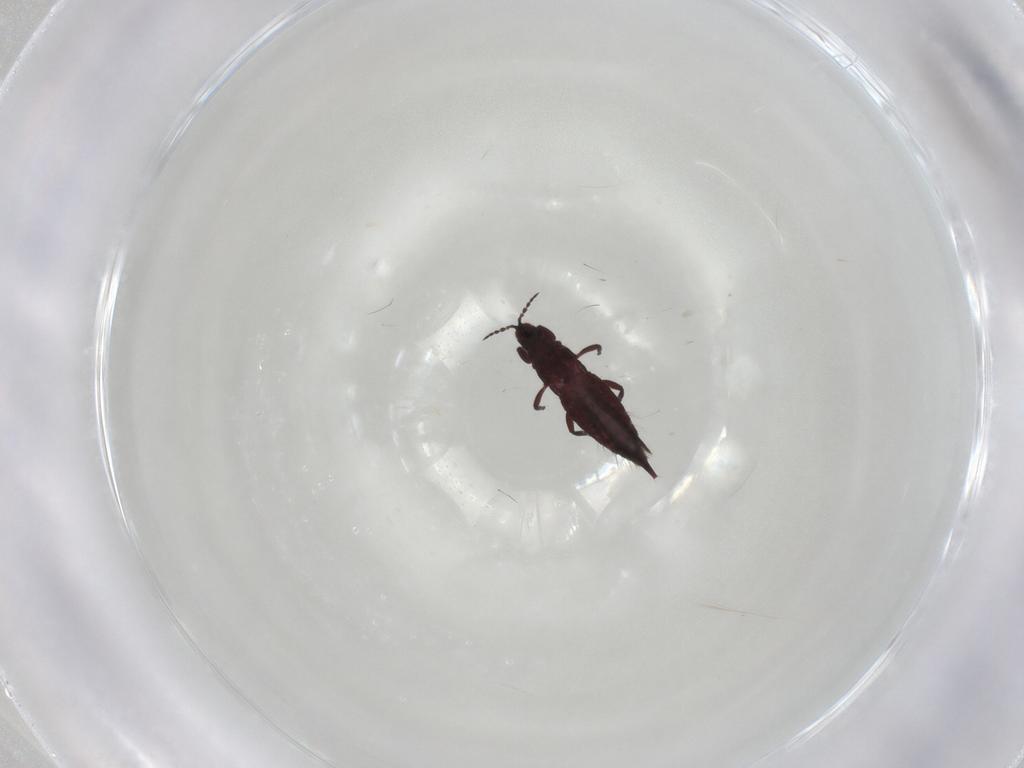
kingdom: Animalia
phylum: Arthropoda
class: Insecta
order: Thysanoptera
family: Phlaeothripidae
